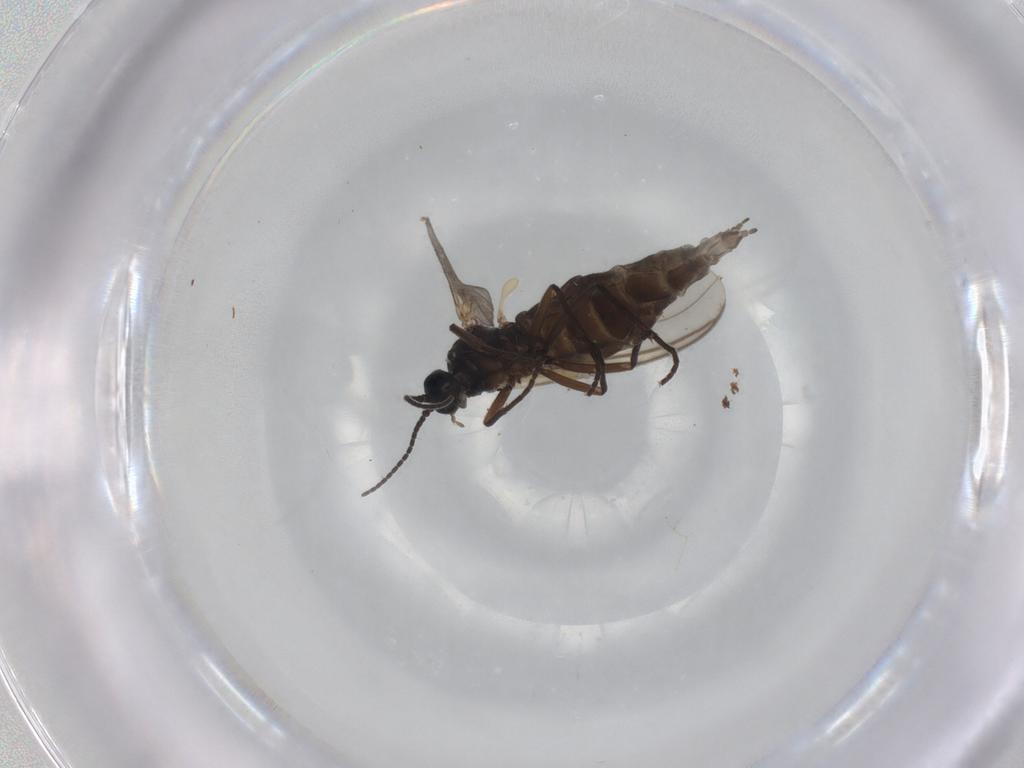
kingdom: Animalia
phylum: Arthropoda
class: Insecta
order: Diptera
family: Sciaridae
